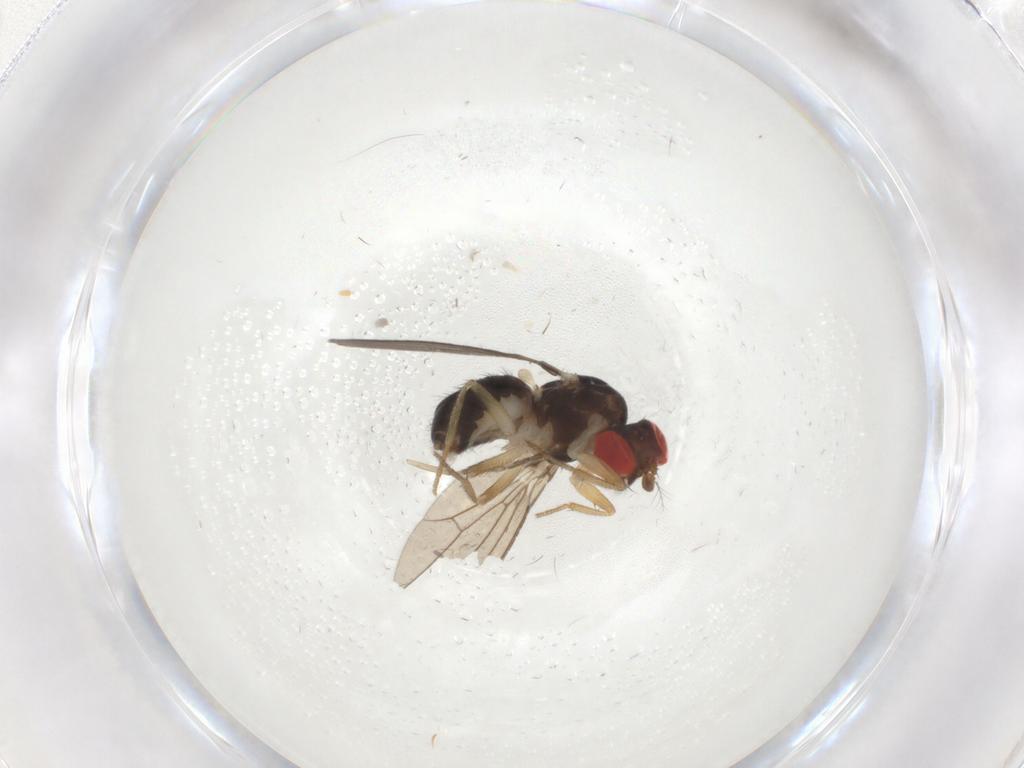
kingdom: Animalia
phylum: Arthropoda
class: Insecta
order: Diptera
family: Drosophilidae
